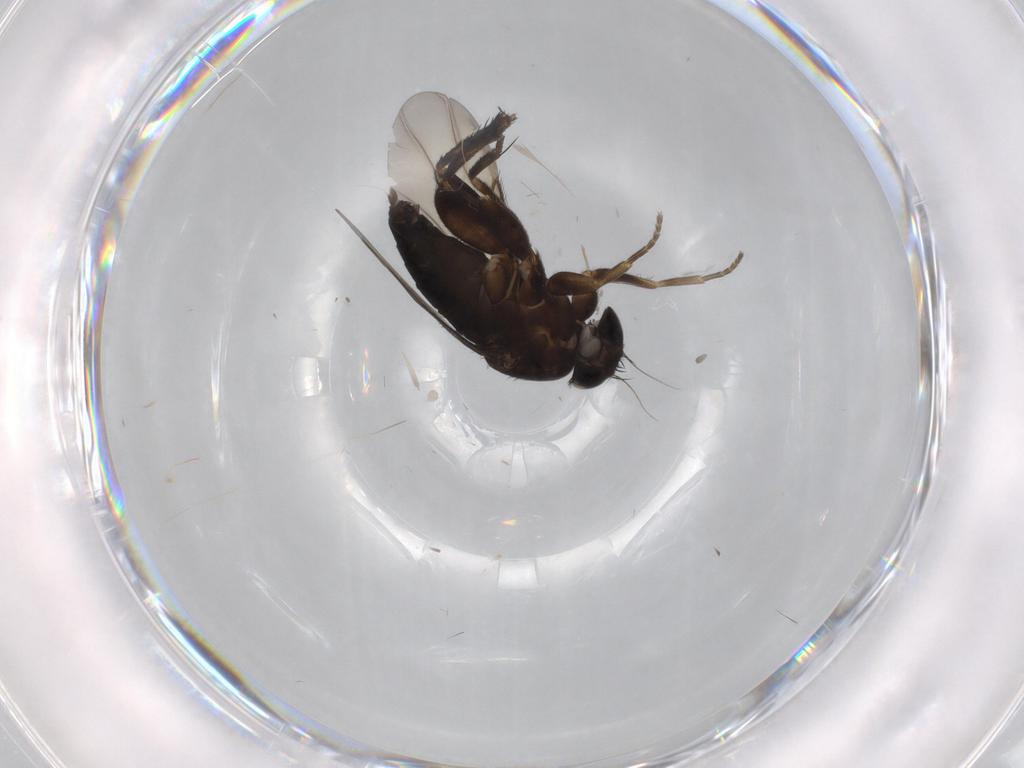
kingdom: Animalia
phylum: Arthropoda
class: Insecta
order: Diptera
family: Phoridae
